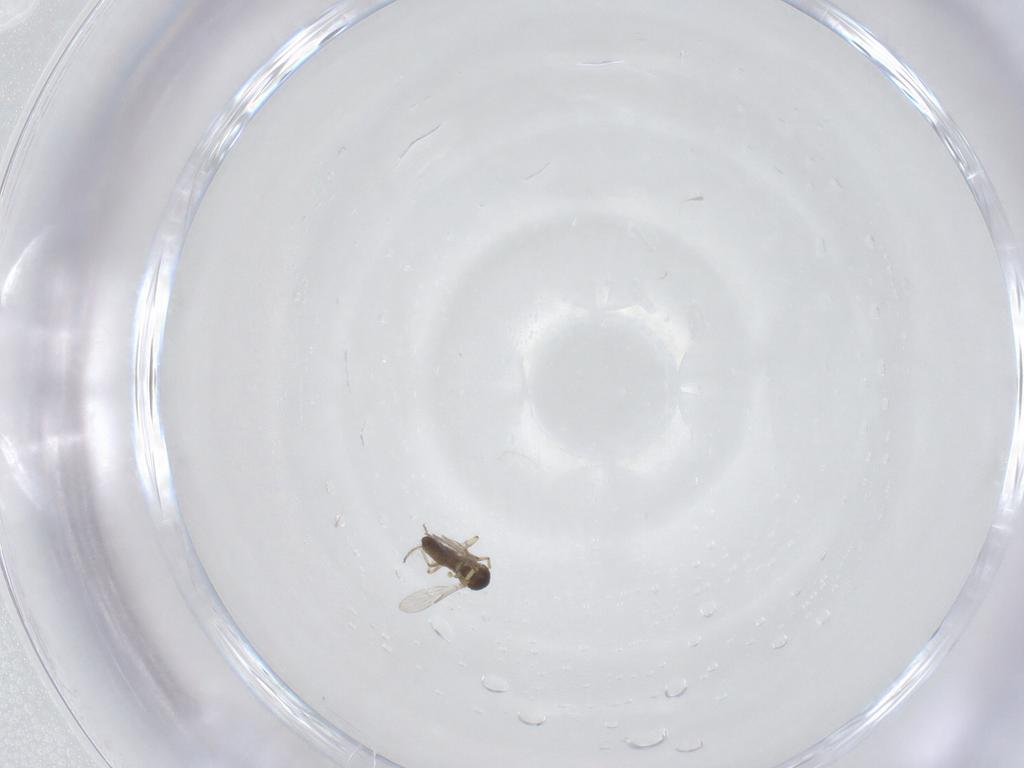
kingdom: Animalia
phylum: Arthropoda
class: Insecta
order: Diptera
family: Ceratopogonidae
